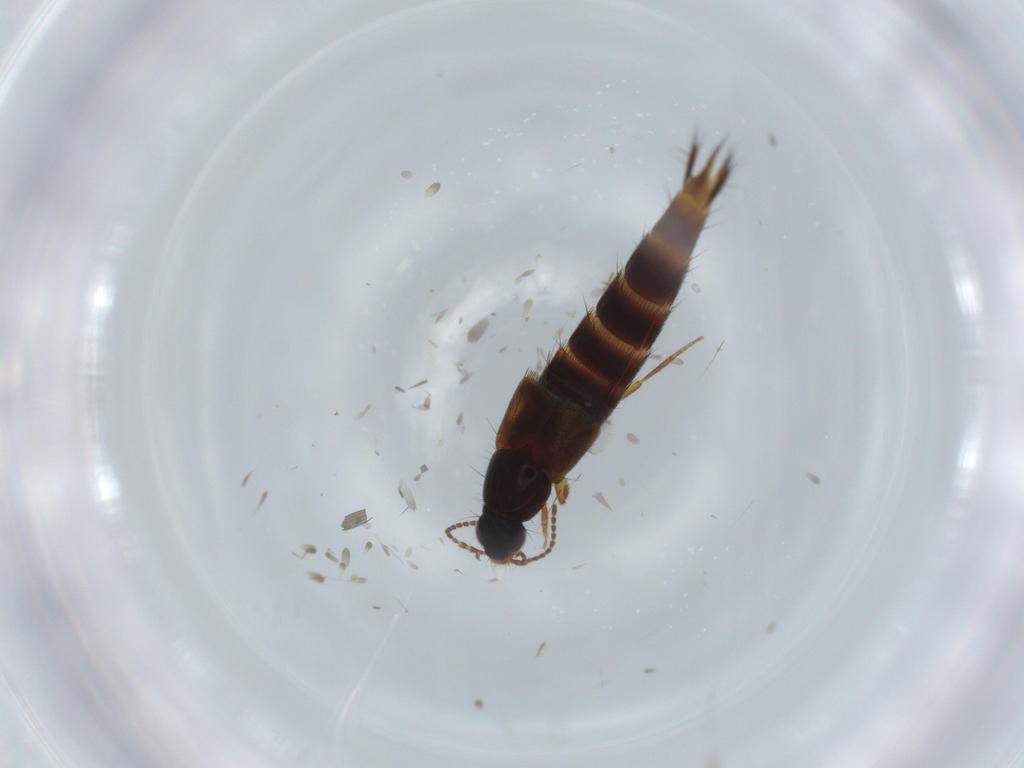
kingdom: Animalia
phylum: Arthropoda
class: Insecta
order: Coleoptera
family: Staphylinidae
